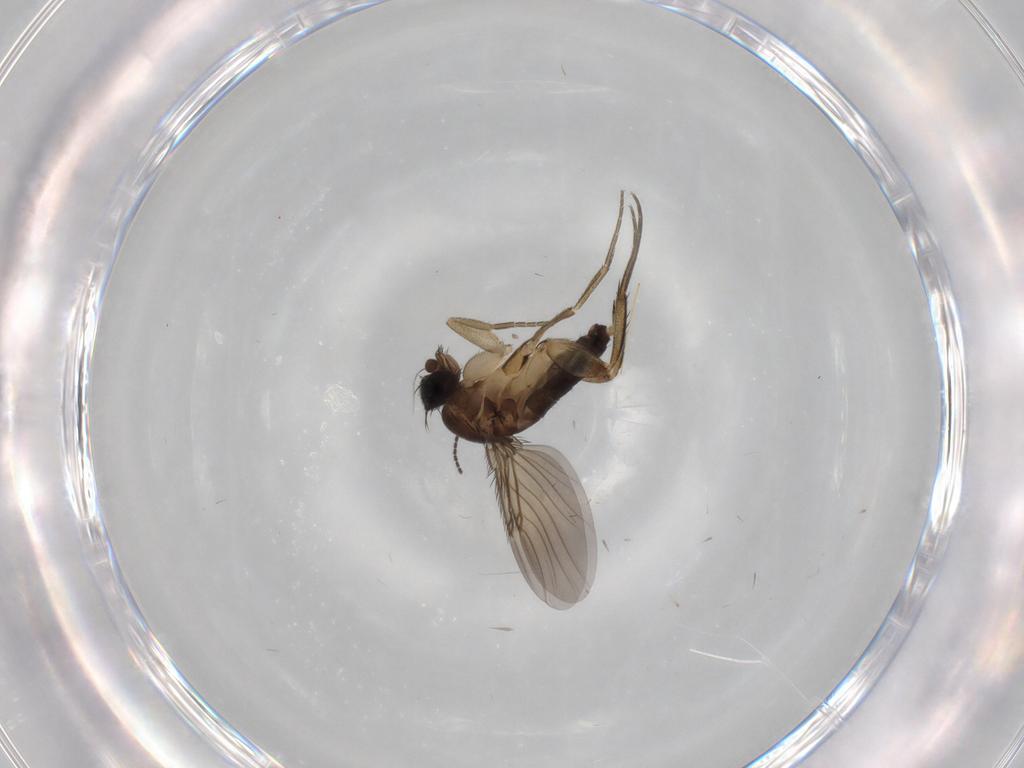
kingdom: Animalia
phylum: Arthropoda
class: Insecta
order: Diptera
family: Phoridae
